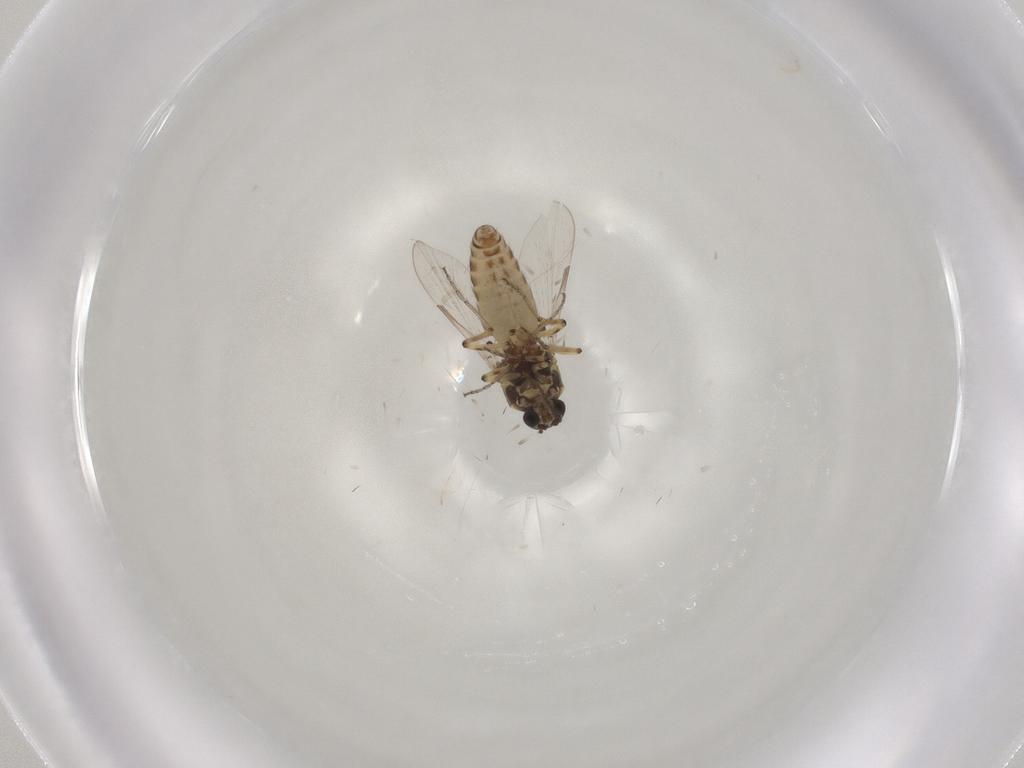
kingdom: Animalia
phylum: Arthropoda
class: Insecta
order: Diptera
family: Ceratopogonidae
